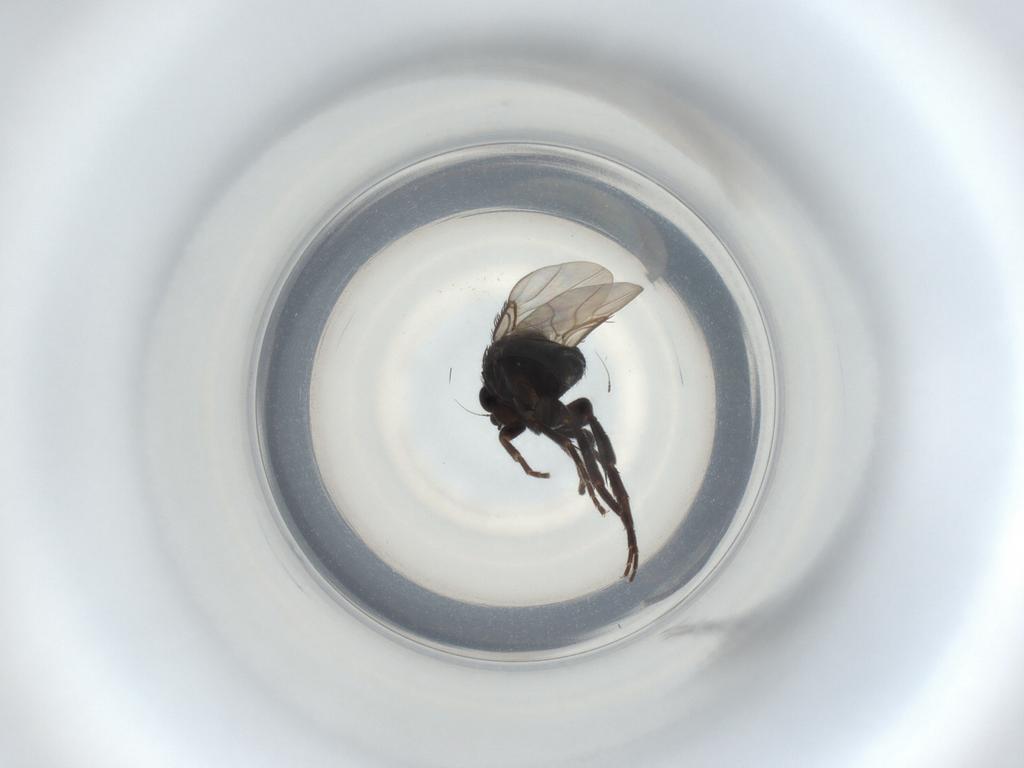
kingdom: Animalia
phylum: Arthropoda
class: Insecta
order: Diptera
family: Phoridae
